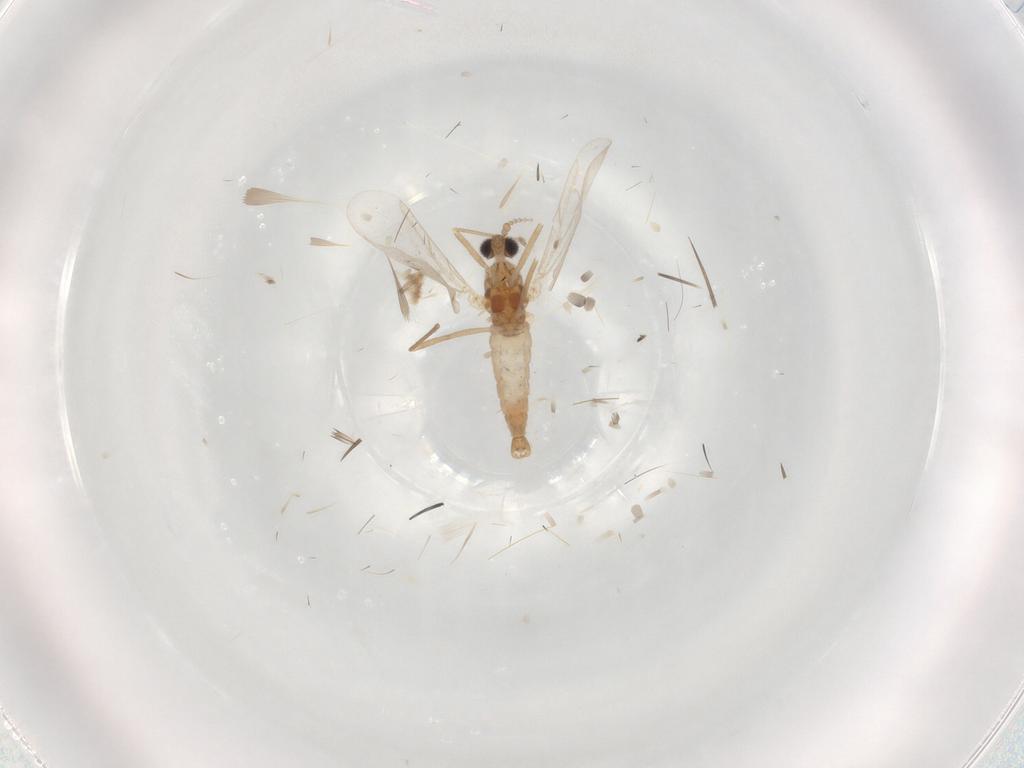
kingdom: Animalia
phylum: Arthropoda
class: Insecta
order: Diptera
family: Cecidomyiidae
